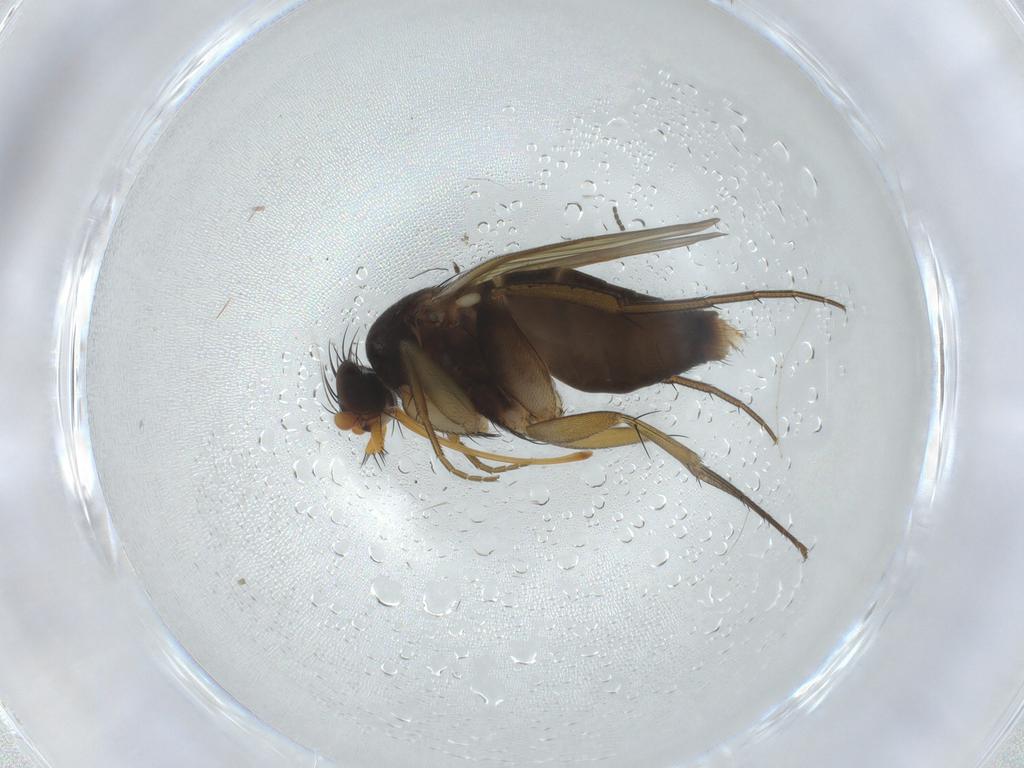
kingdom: Animalia
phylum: Arthropoda
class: Insecta
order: Diptera
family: Phoridae
